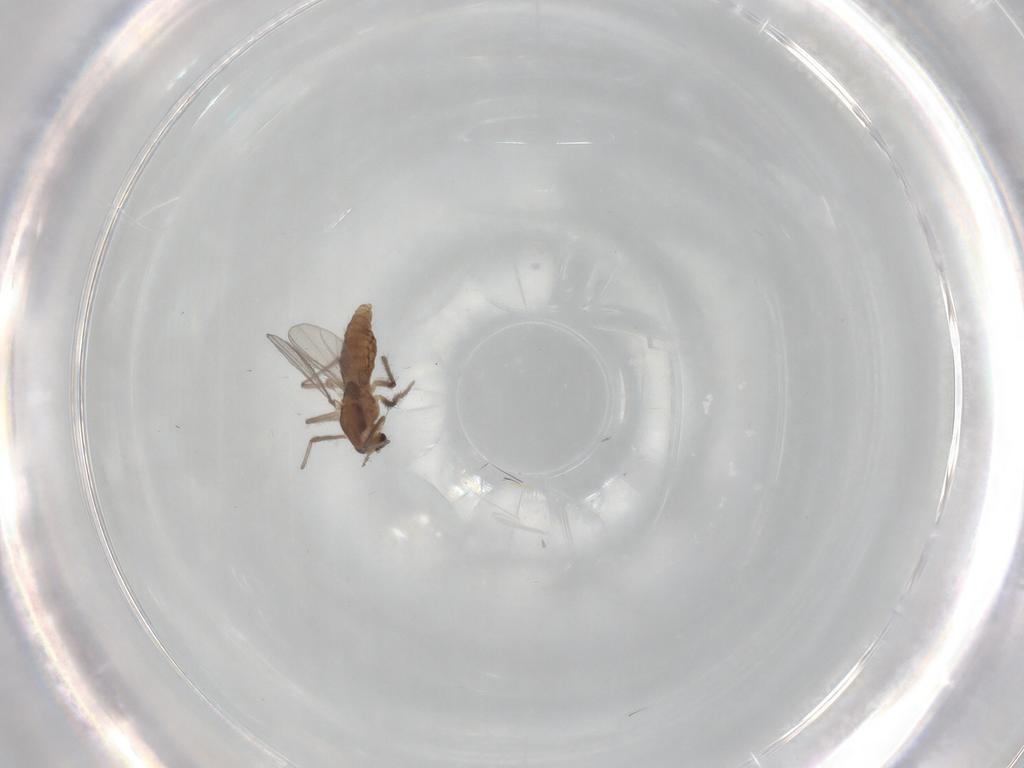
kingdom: Animalia
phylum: Arthropoda
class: Insecta
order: Diptera
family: Chironomidae
